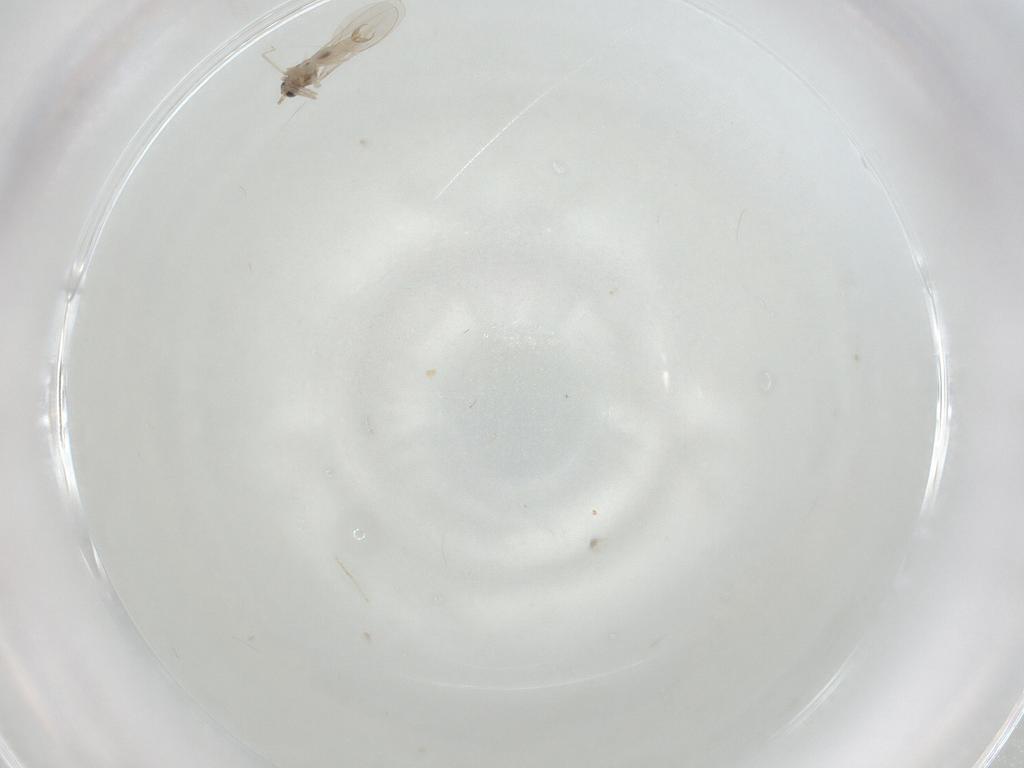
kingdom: Animalia
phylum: Arthropoda
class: Insecta
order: Diptera
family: Cecidomyiidae
